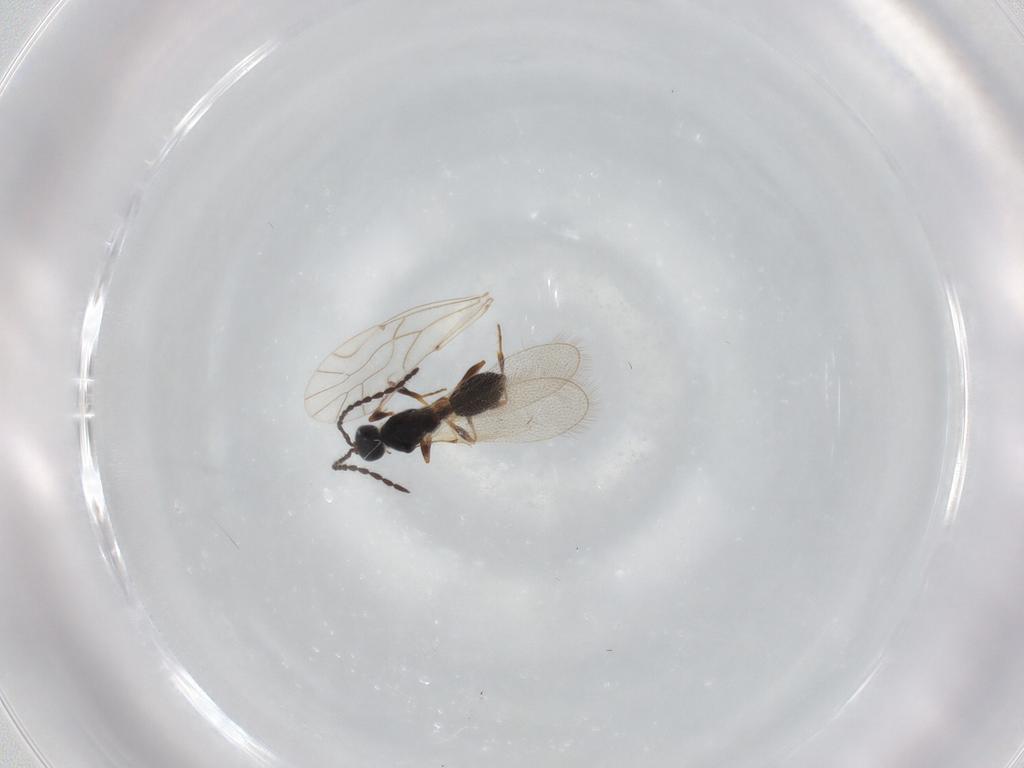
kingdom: Animalia
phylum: Arthropoda
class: Insecta
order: Hymenoptera
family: Diapriidae
